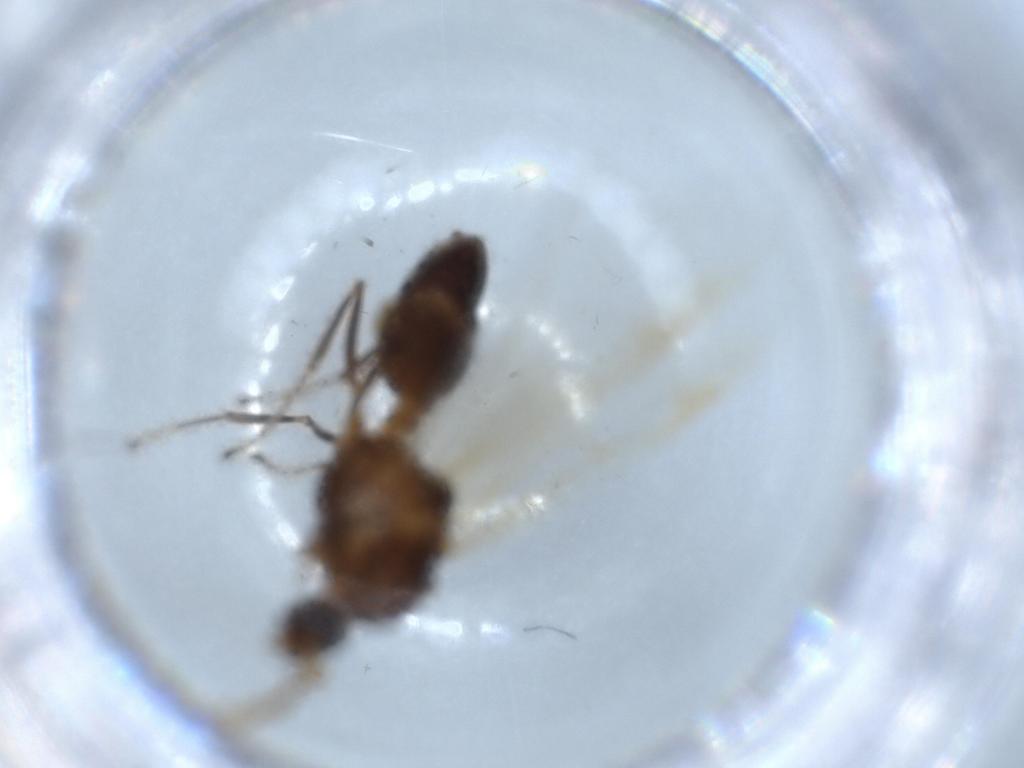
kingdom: Animalia
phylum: Arthropoda
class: Insecta
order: Hymenoptera
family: Formicidae
